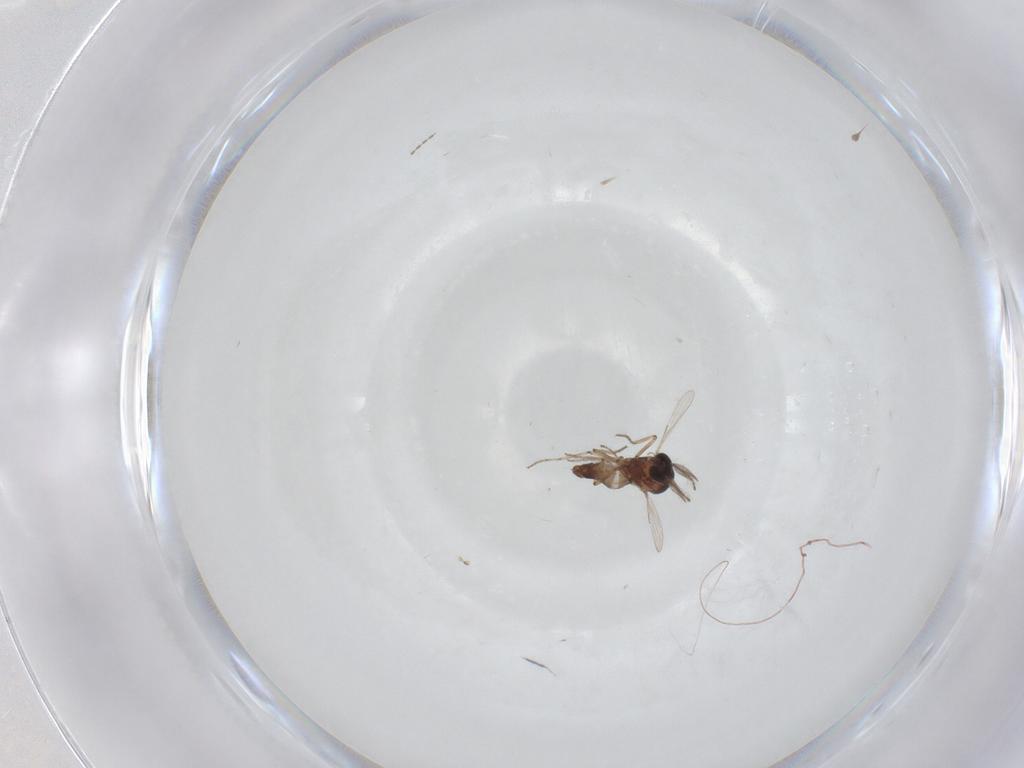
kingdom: Animalia
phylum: Arthropoda
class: Insecta
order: Diptera
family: Ceratopogonidae
